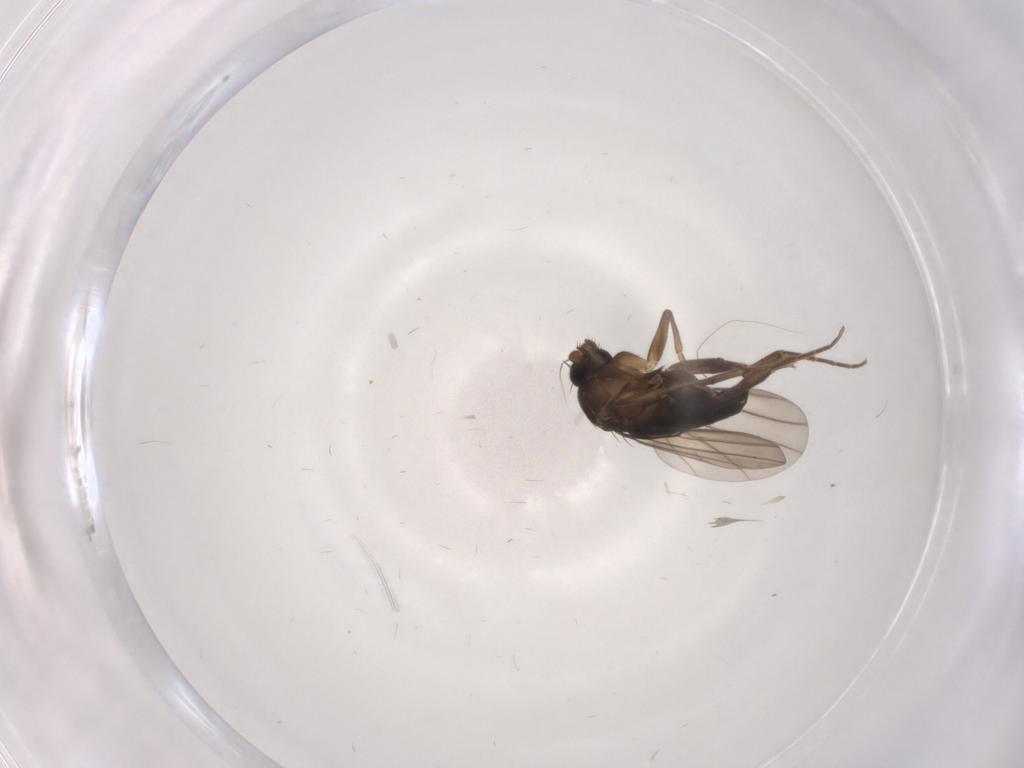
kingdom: Animalia
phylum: Arthropoda
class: Insecta
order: Diptera
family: Phoridae
